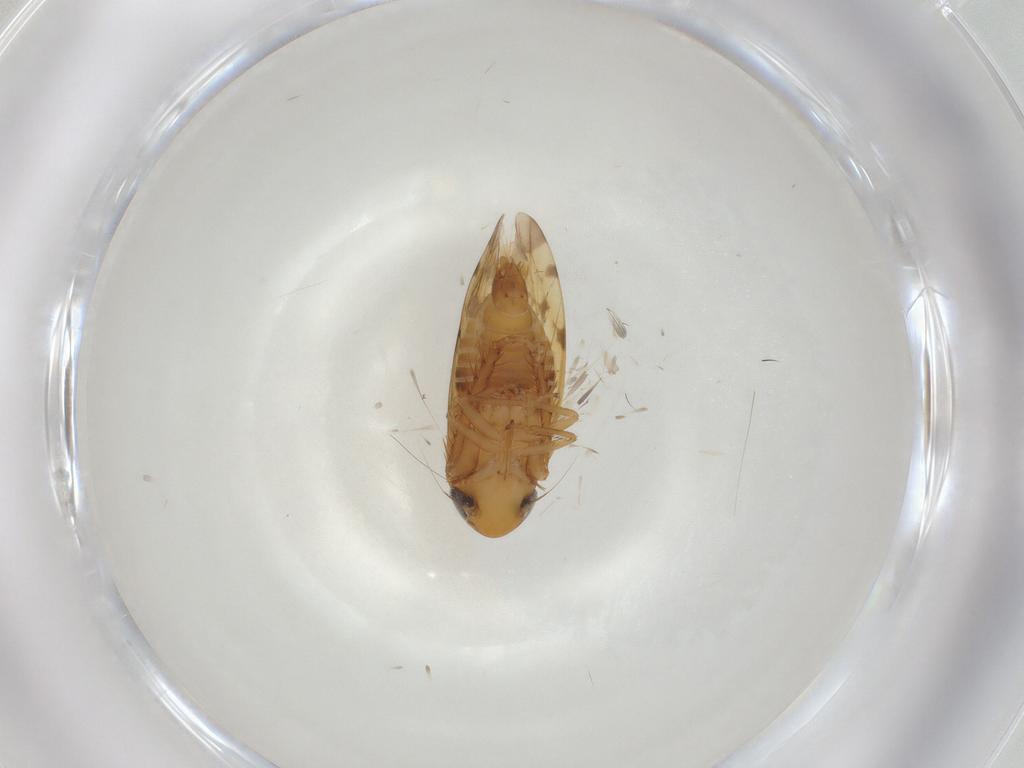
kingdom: Animalia
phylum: Arthropoda
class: Insecta
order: Hemiptera
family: Cicadellidae
